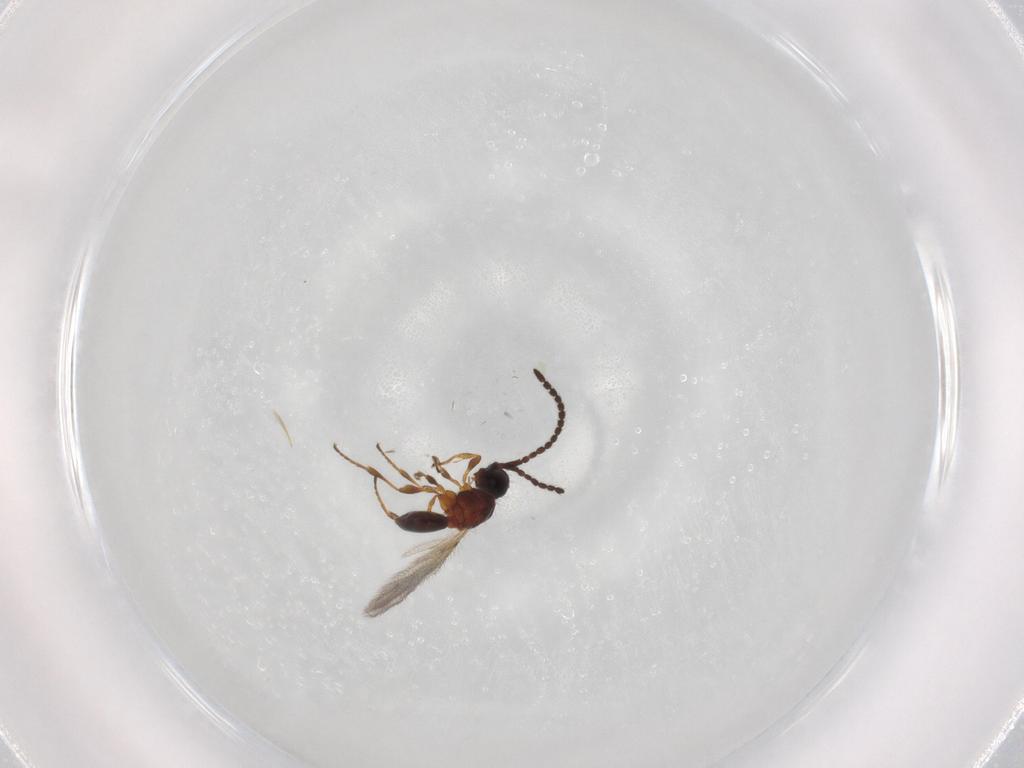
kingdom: Animalia
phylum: Arthropoda
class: Insecta
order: Hymenoptera
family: Diapriidae
